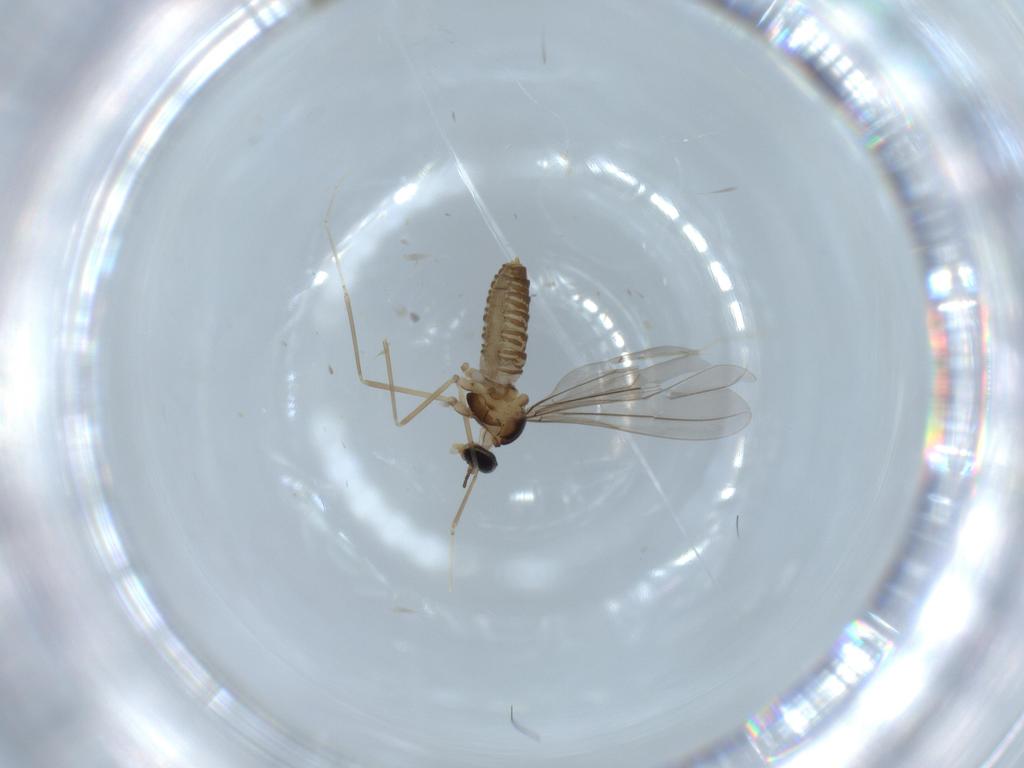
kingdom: Animalia
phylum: Arthropoda
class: Insecta
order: Diptera
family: Cecidomyiidae
